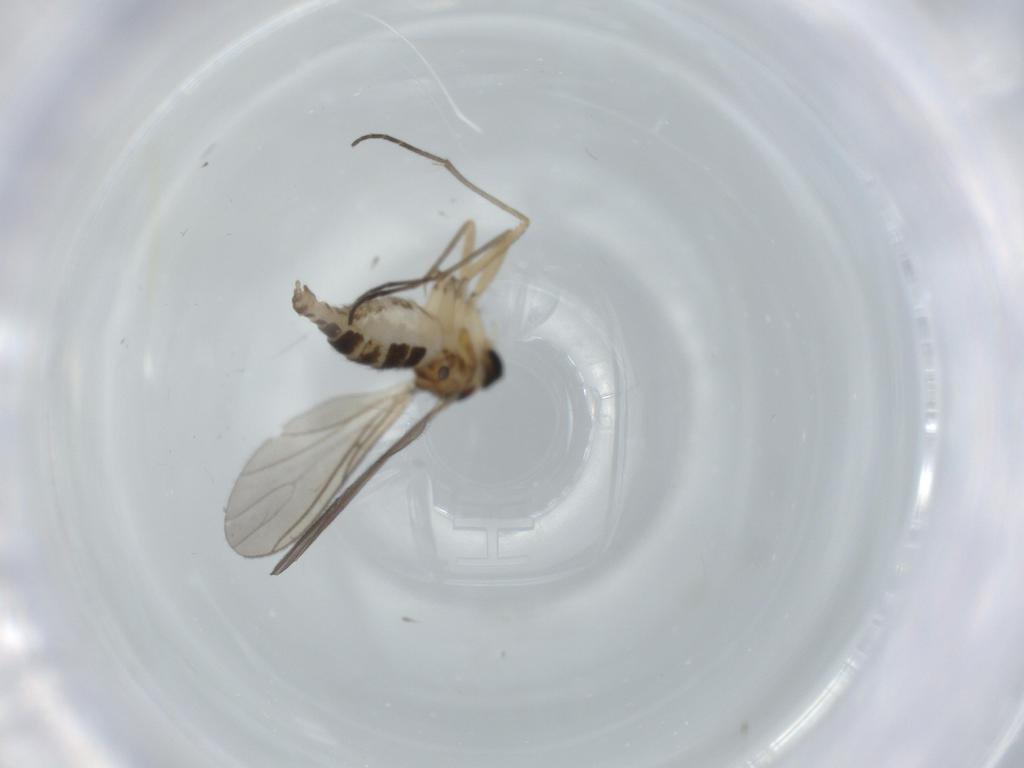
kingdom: Animalia
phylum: Arthropoda
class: Insecta
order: Diptera
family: Sciaridae
